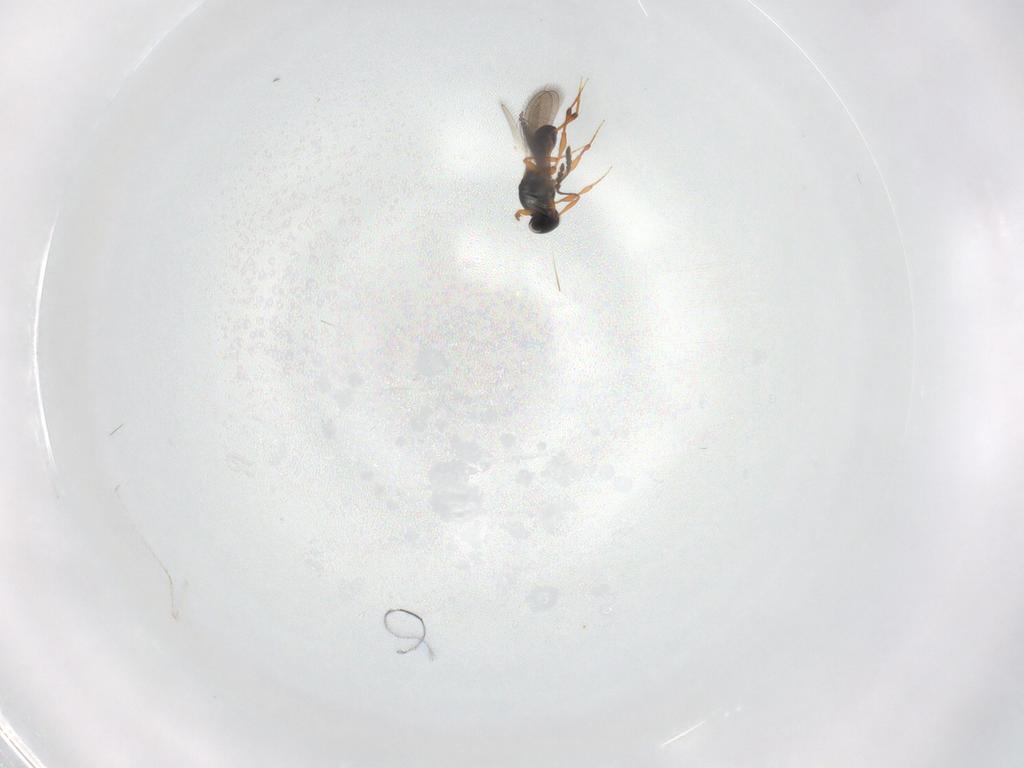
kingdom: Animalia
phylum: Arthropoda
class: Insecta
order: Hymenoptera
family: Platygastridae
